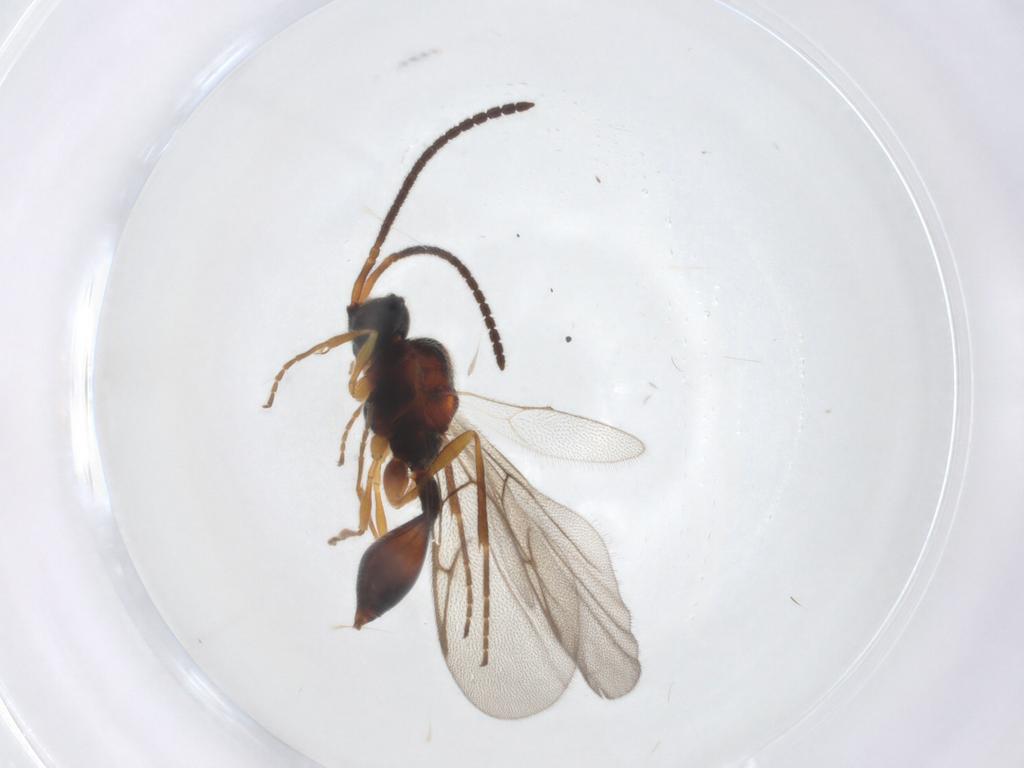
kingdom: Animalia
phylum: Arthropoda
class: Insecta
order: Hymenoptera
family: Diapriidae
